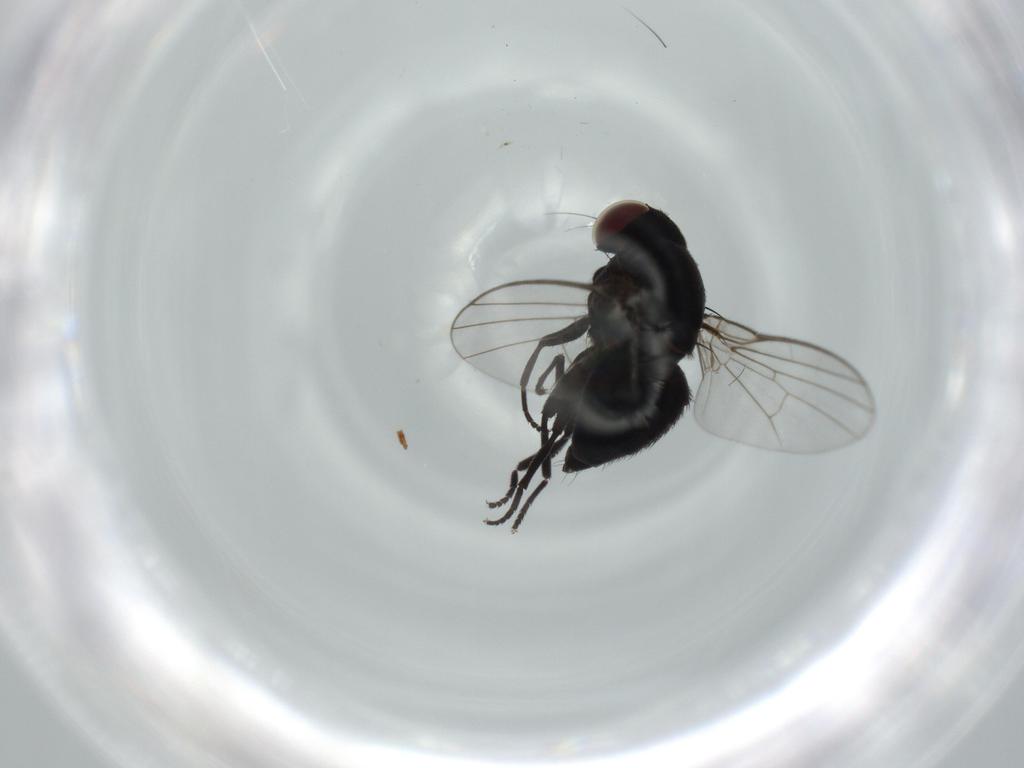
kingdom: Animalia
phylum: Arthropoda
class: Insecta
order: Diptera
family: Agromyzidae
